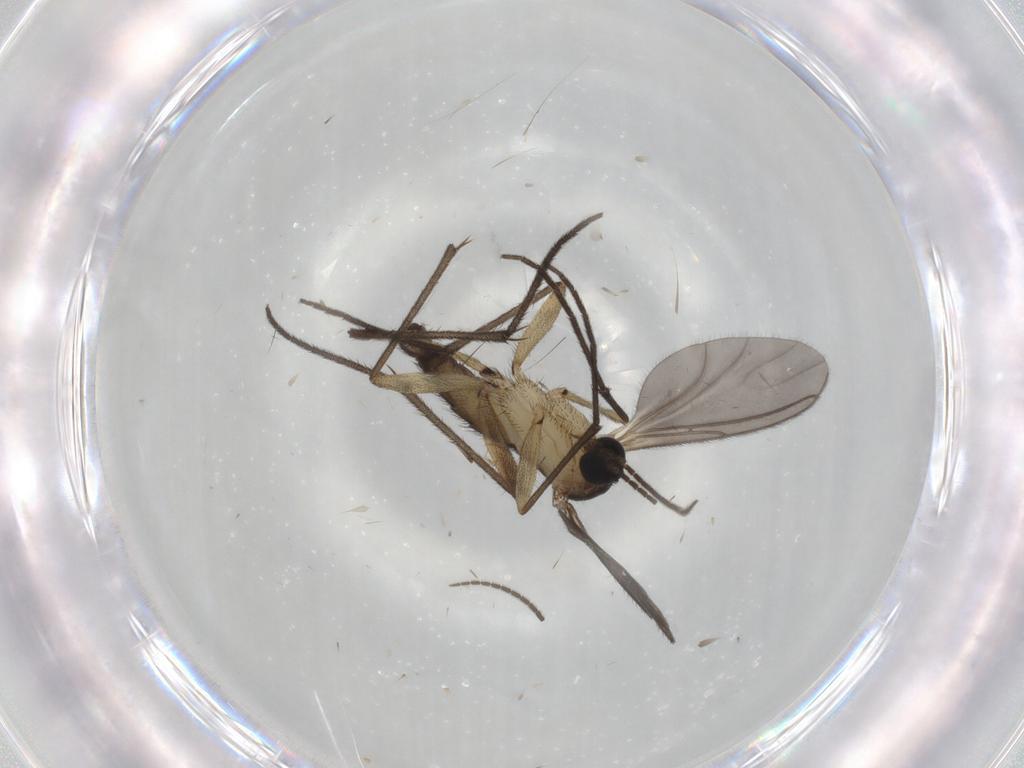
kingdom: Animalia
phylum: Arthropoda
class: Insecta
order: Diptera
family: Sciaridae
